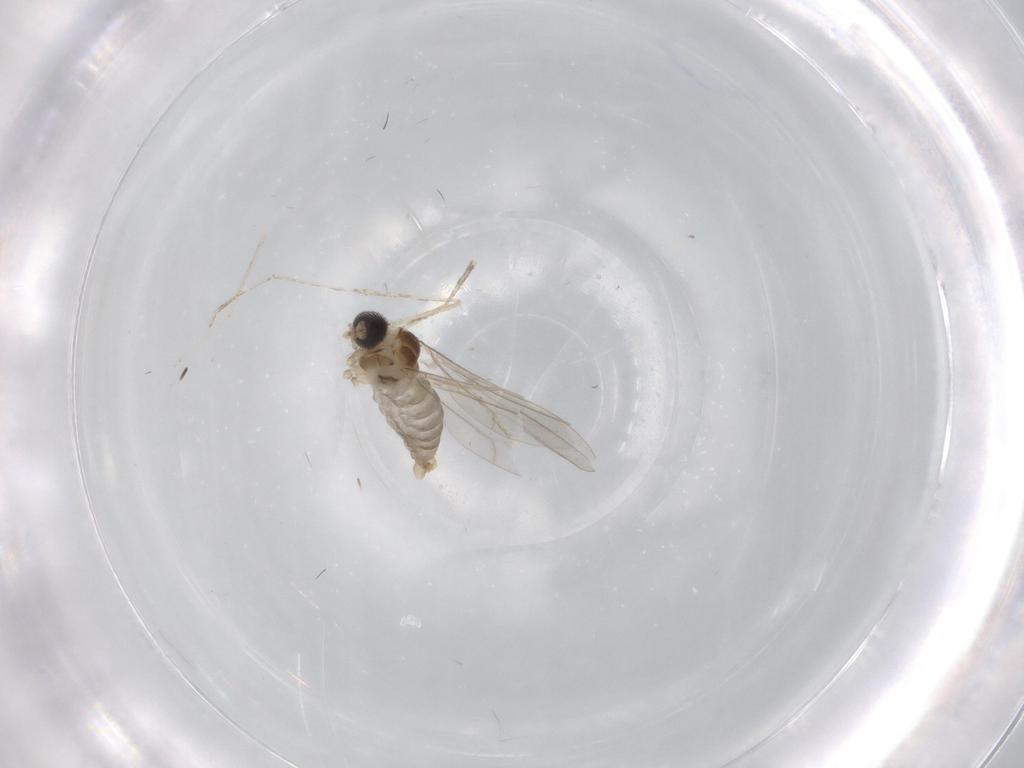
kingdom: Animalia
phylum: Arthropoda
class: Insecta
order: Diptera
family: Cecidomyiidae
